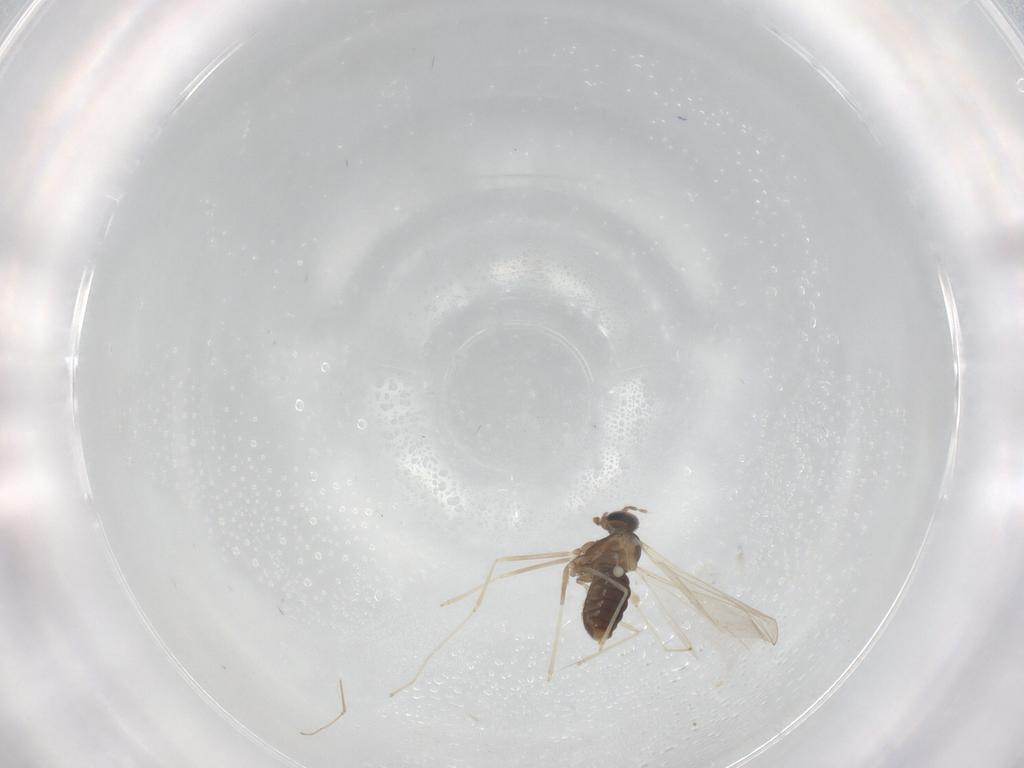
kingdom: Animalia
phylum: Arthropoda
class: Insecta
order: Diptera
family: Cecidomyiidae
